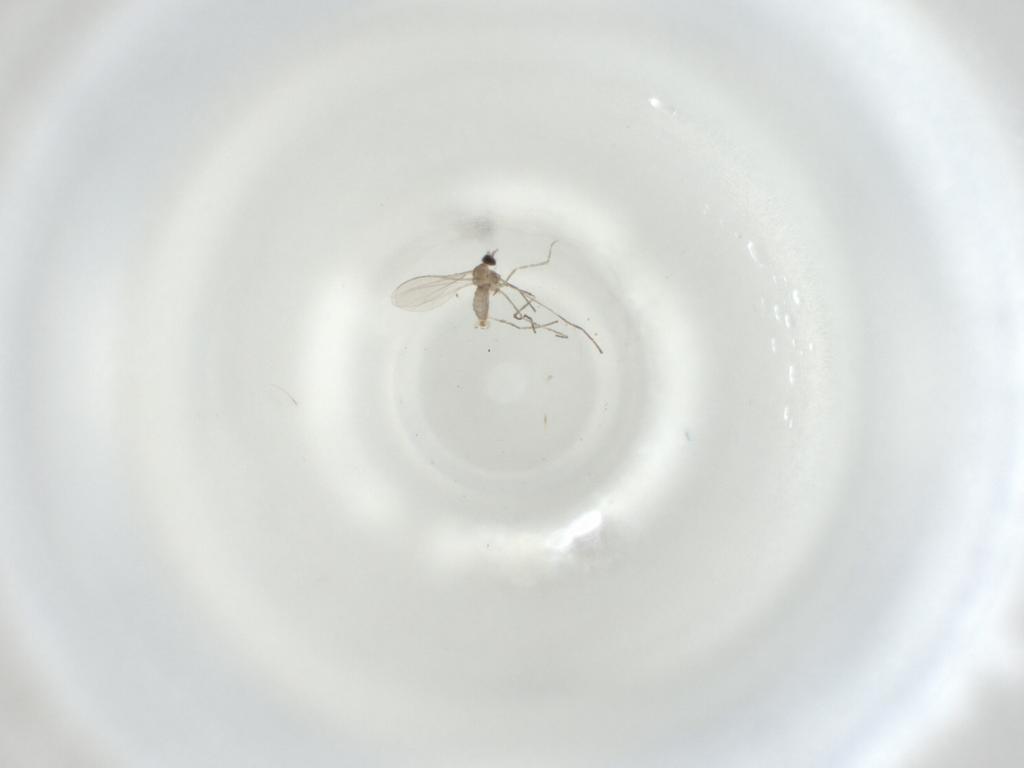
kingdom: Animalia
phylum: Arthropoda
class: Insecta
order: Diptera
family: Cecidomyiidae
